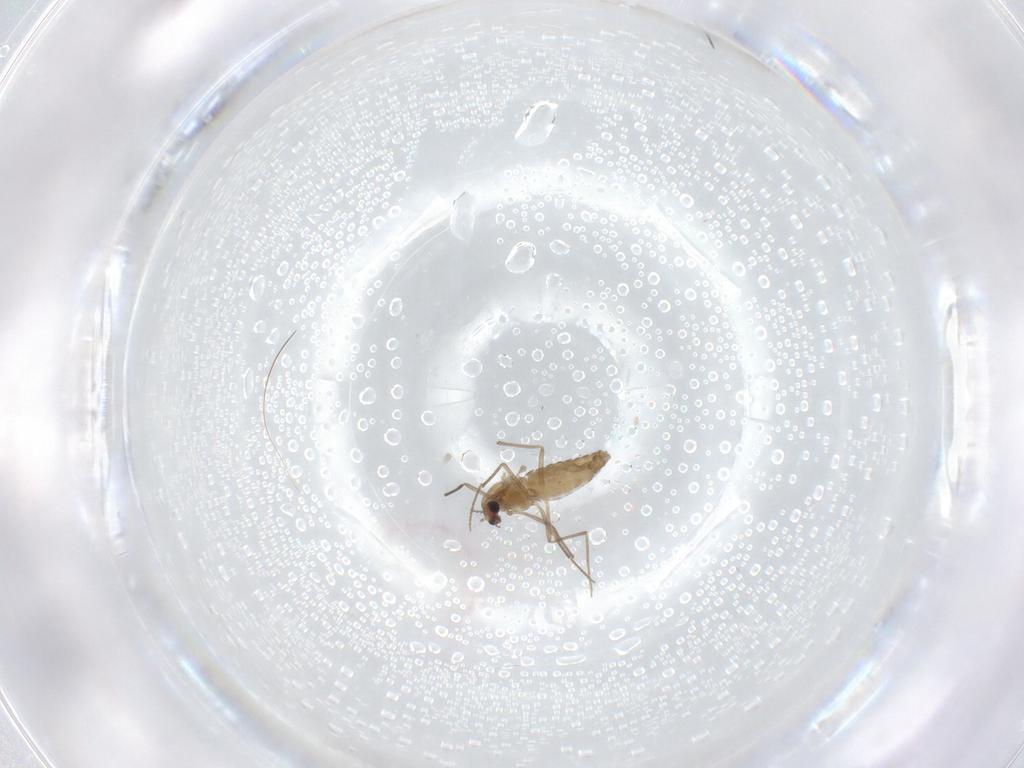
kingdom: Animalia
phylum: Arthropoda
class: Insecta
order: Diptera
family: Chironomidae
